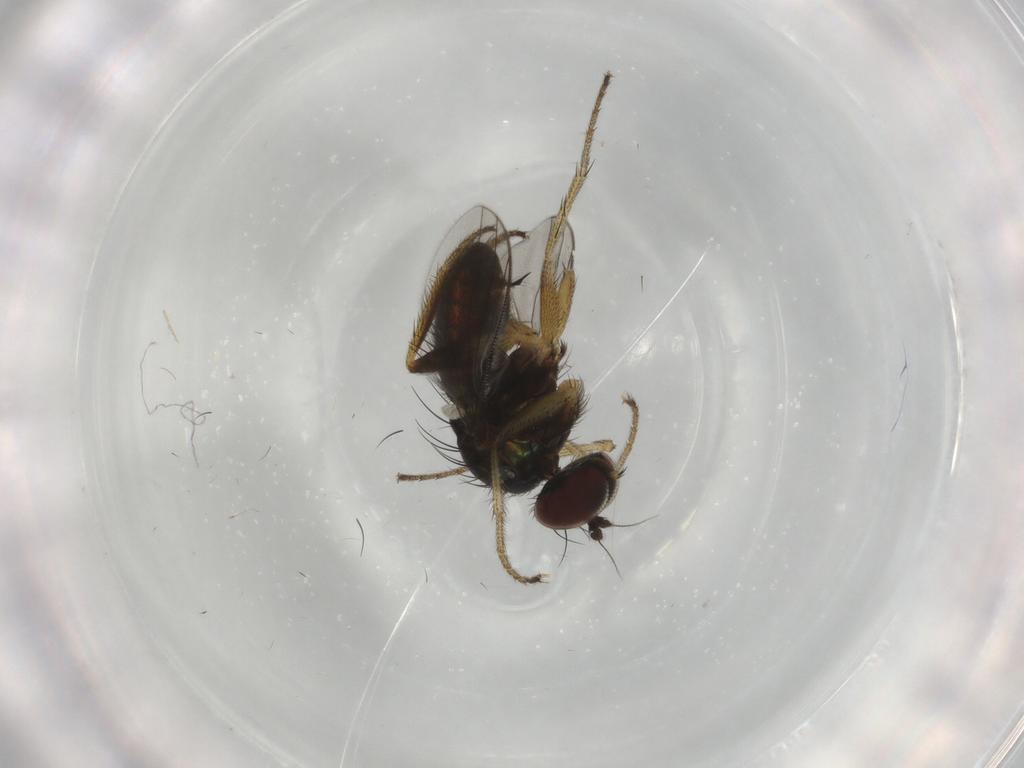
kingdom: Animalia
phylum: Arthropoda
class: Insecta
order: Diptera
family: Dolichopodidae
